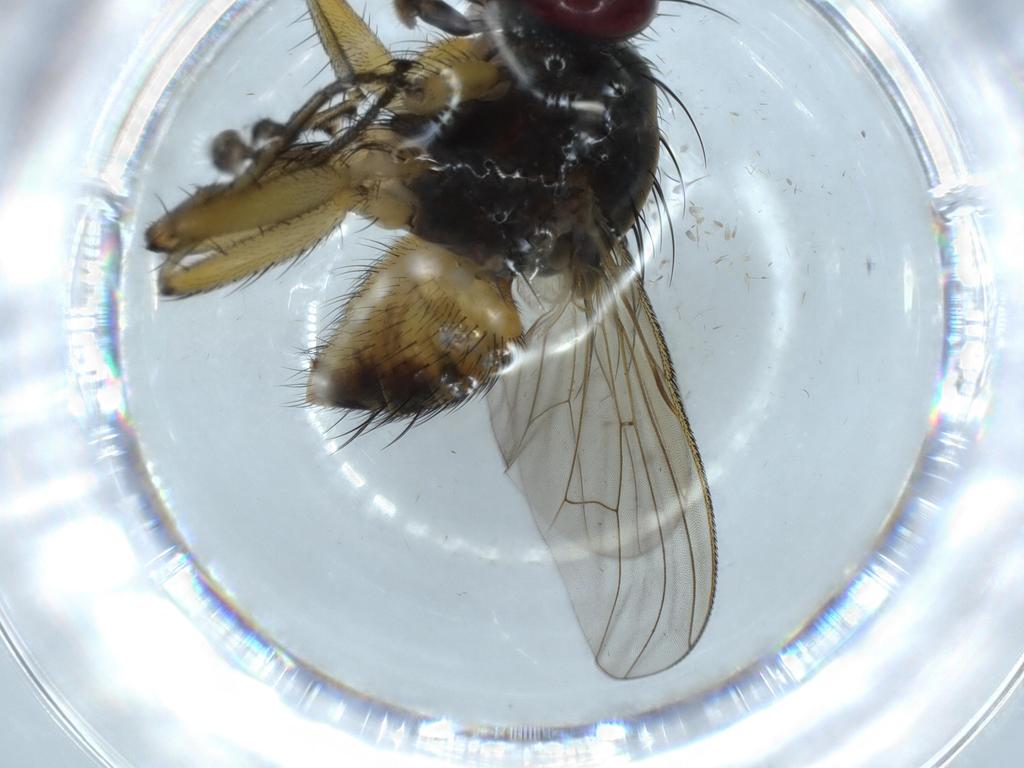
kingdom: Animalia
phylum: Arthropoda
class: Insecta
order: Diptera
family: Muscidae
